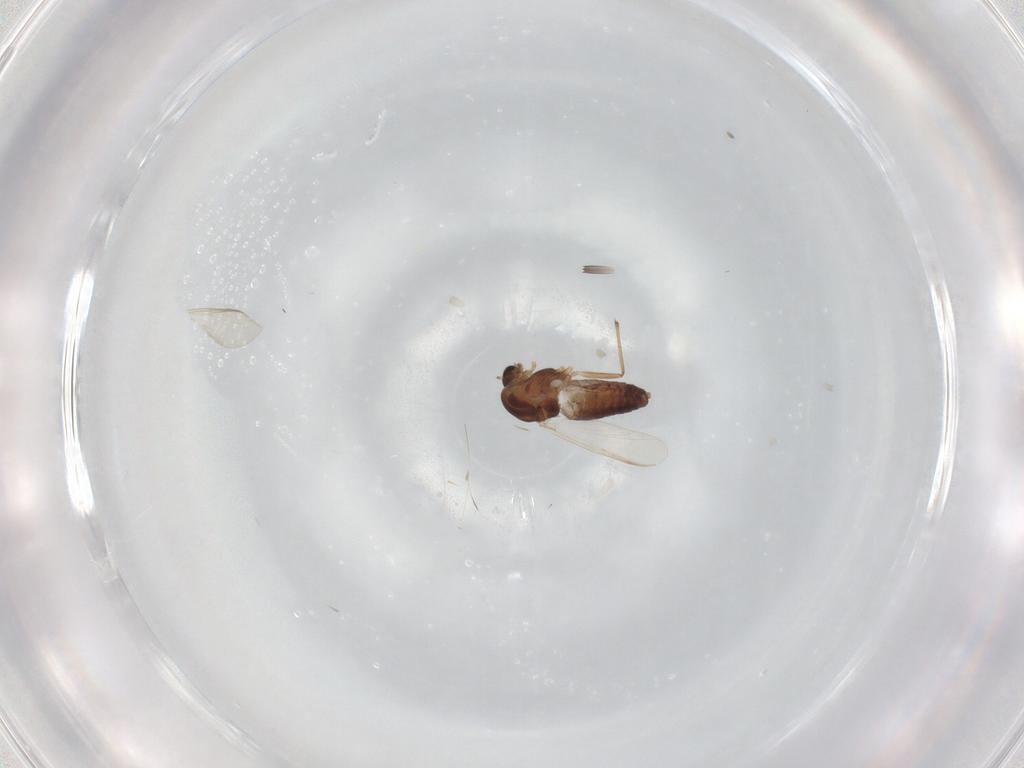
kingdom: Animalia
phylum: Arthropoda
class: Insecta
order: Diptera
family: Chironomidae
